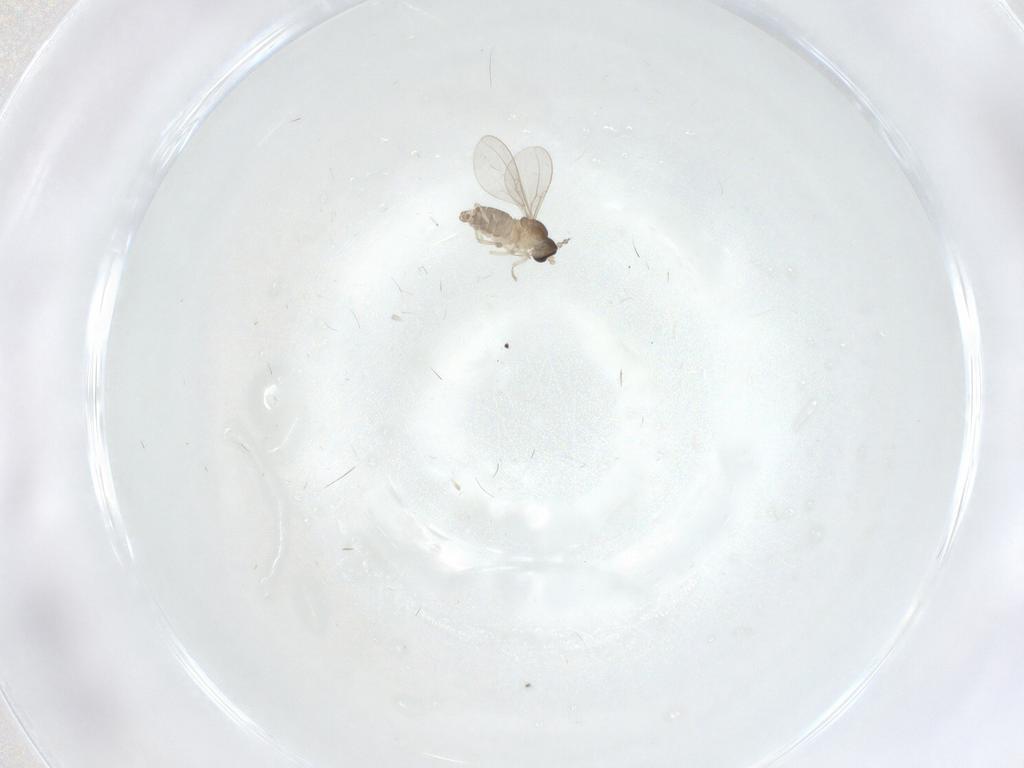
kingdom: Animalia
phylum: Arthropoda
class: Insecta
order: Diptera
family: Cecidomyiidae
